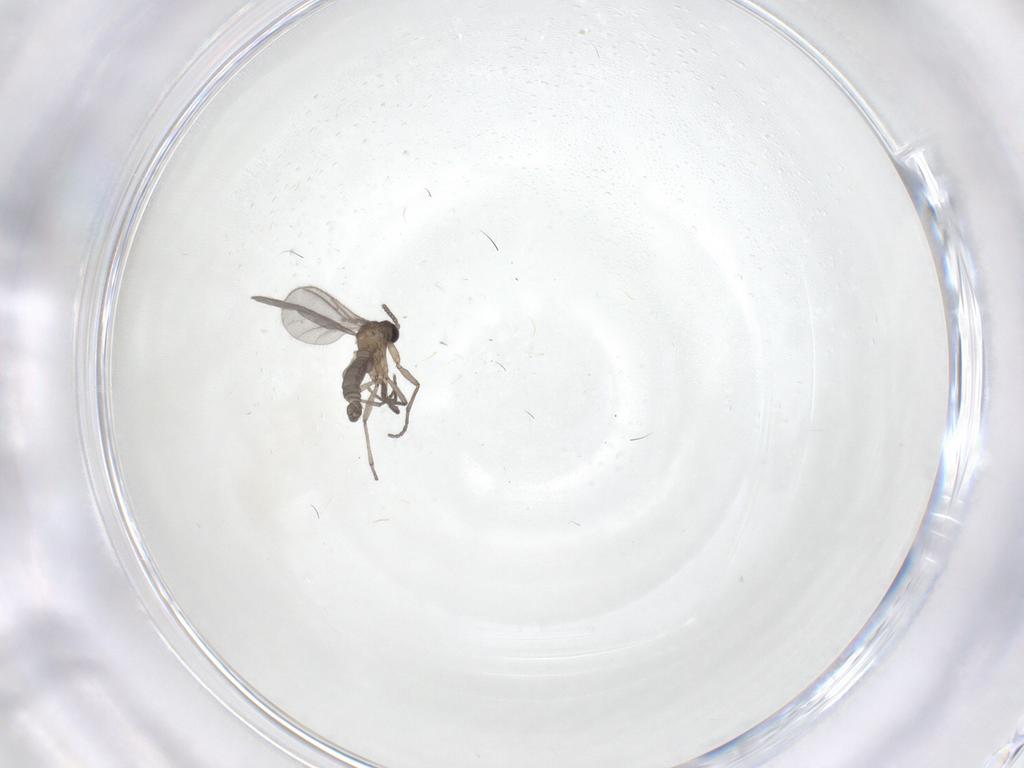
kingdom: Animalia
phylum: Arthropoda
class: Insecta
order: Diptera
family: Sciaridae
